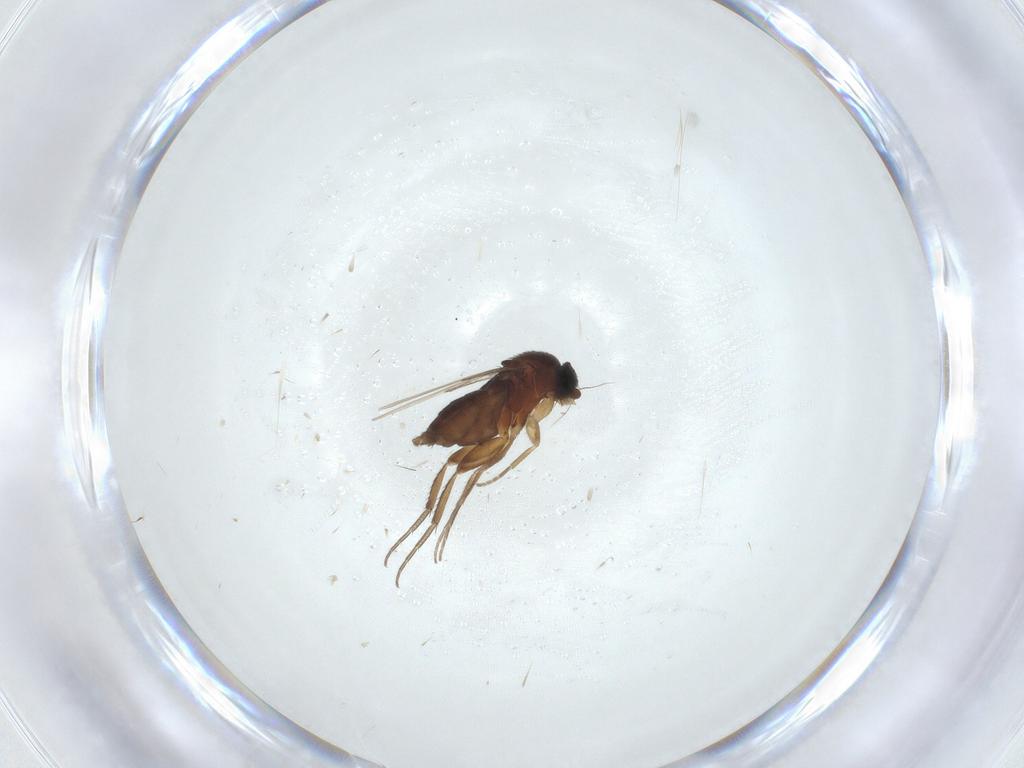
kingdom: Animalia
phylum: Arthropoda
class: Insecta
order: Diptera
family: Phoridae
